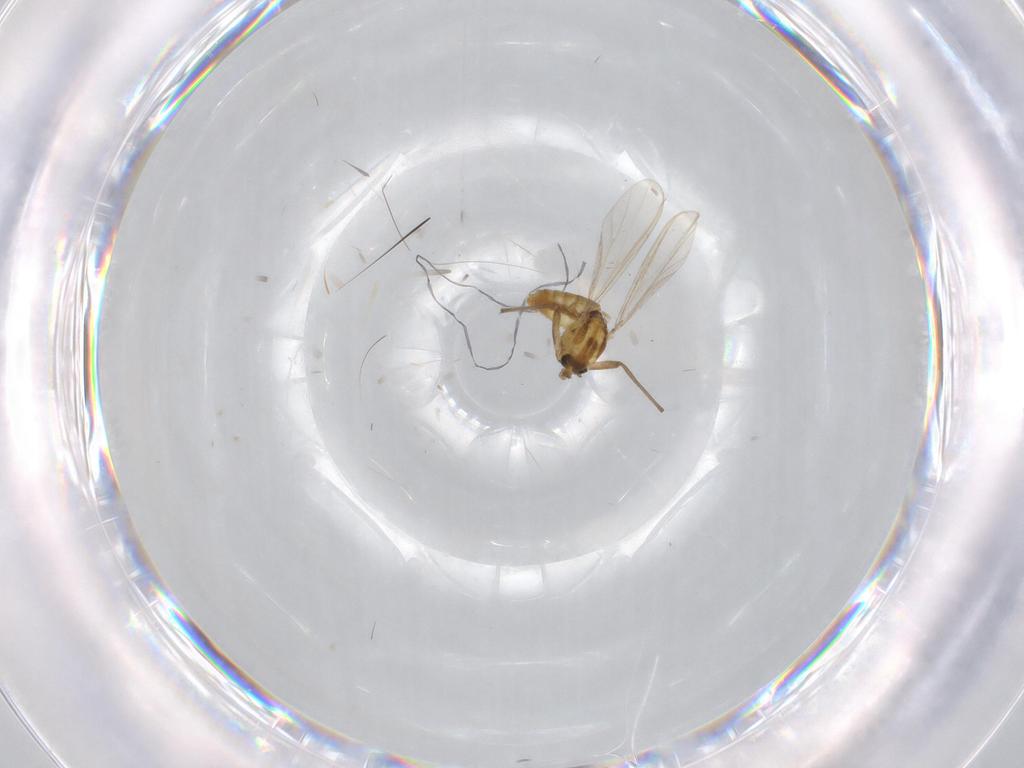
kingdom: Animalia
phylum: Arthropoda
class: Insecta
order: Diptera
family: Chironomidae
